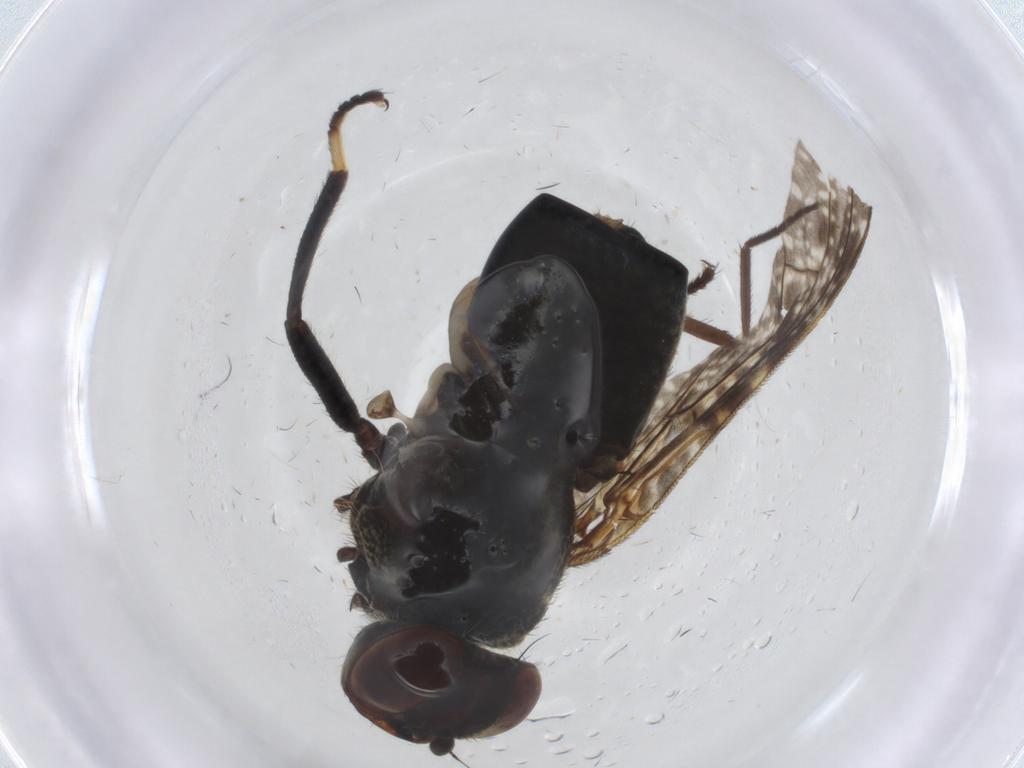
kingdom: Animalia
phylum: Arthropoda
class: Insecta
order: Diptera
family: Platystomatidae
